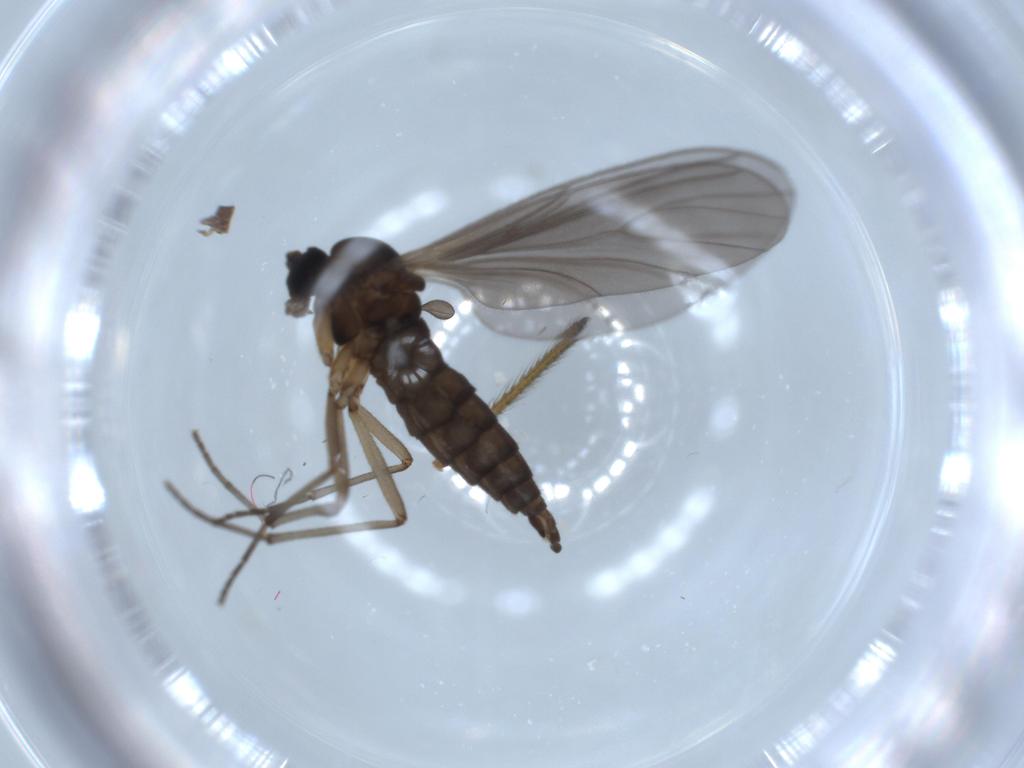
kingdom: Animalia
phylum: Arthropoda
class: Insecta
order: Diptera
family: Sciaridae
